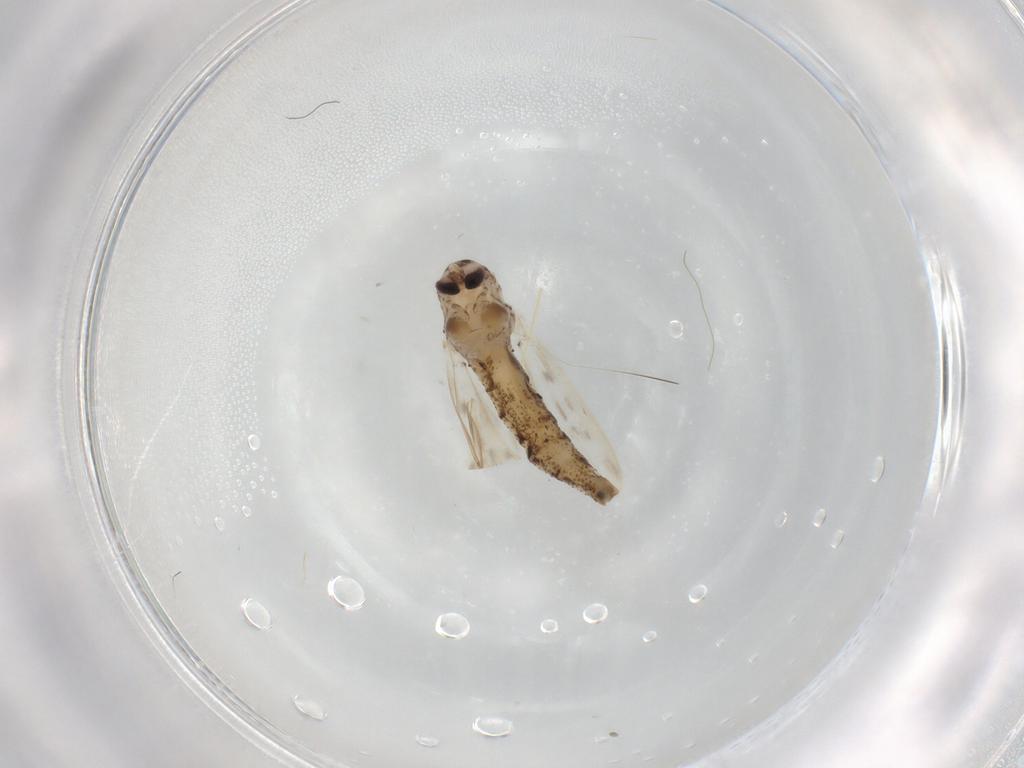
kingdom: Animalia
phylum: Arthropoda
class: Insecta
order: Diptera
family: Chaoboridae
